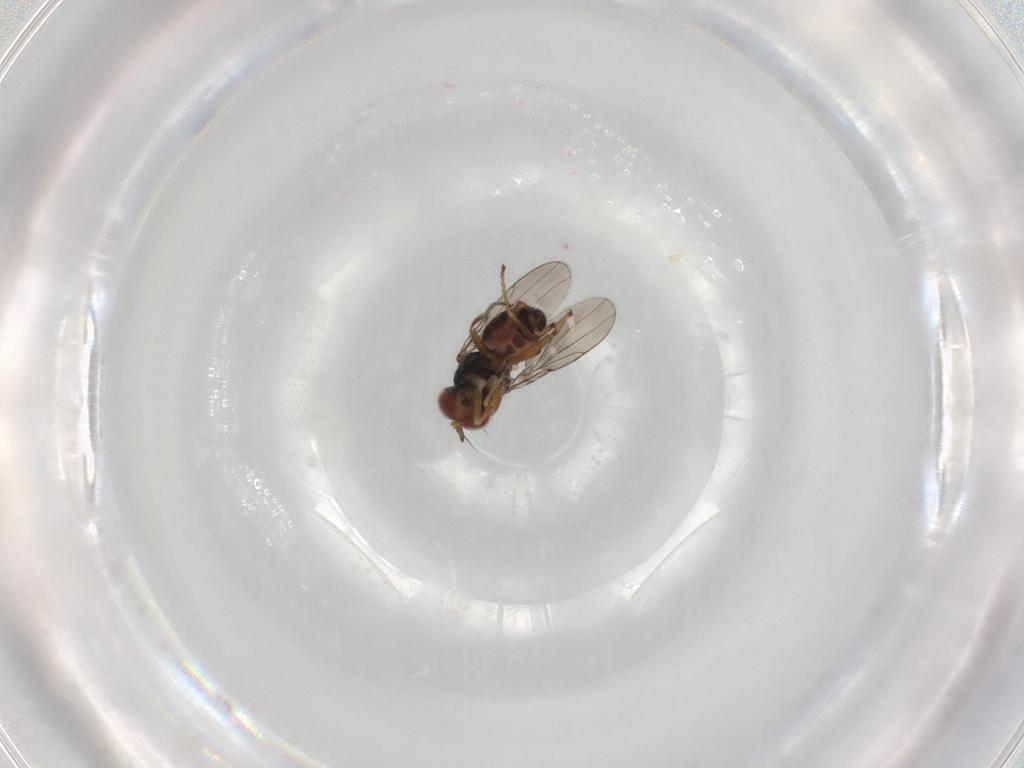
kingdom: Animalia
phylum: Arthropoda
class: Insecta
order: Diptera
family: Ephydridae
